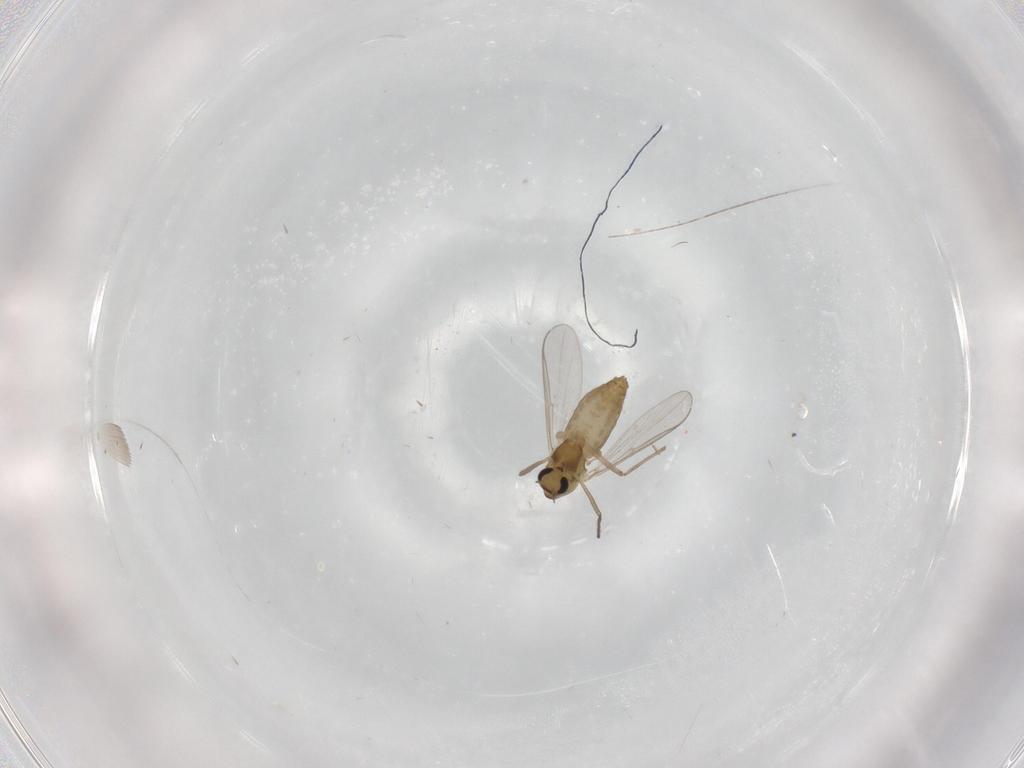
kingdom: Animalia
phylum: Arthropoda
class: Insecta
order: Diptera
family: Chironomidae
